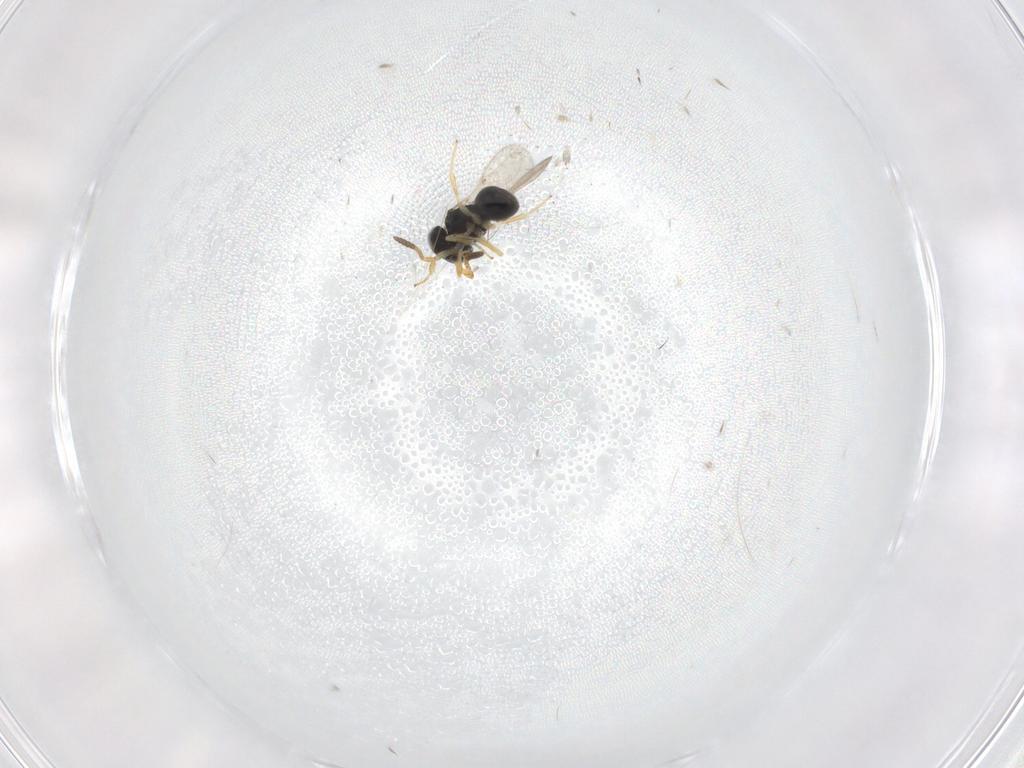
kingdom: Animalia
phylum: Arthropoda
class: Insecta
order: Hymenoptera
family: Scelionidae
